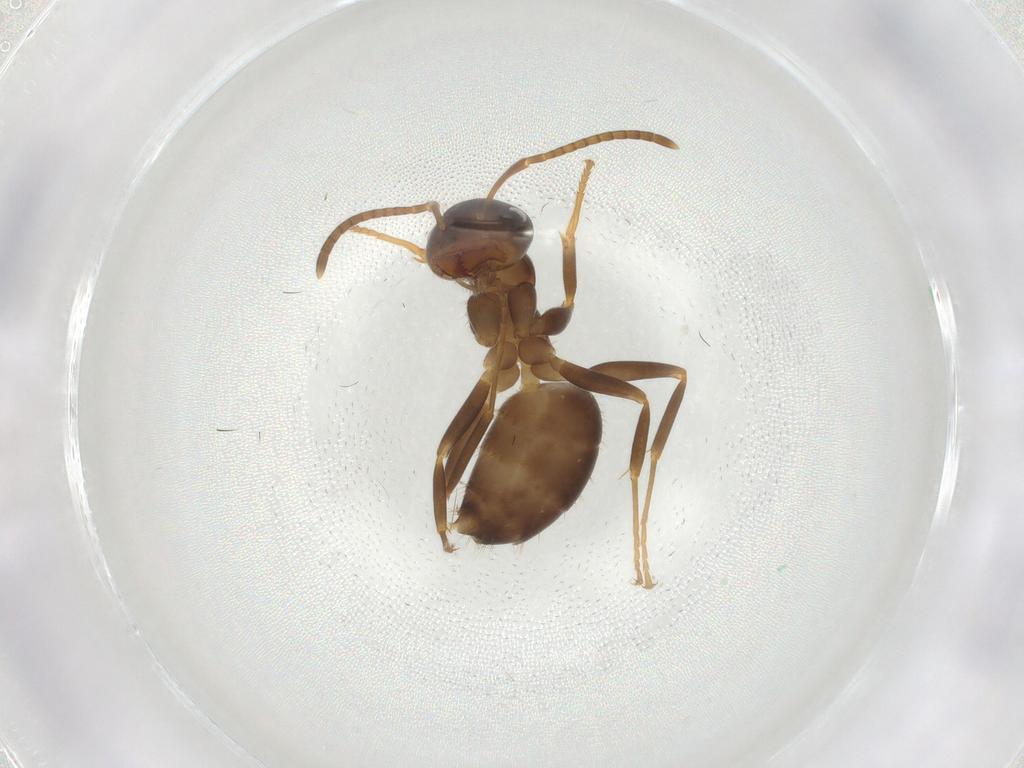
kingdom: Animalia
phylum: Arthropoda
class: Insecta
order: Hymenoptera
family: Formicidae
